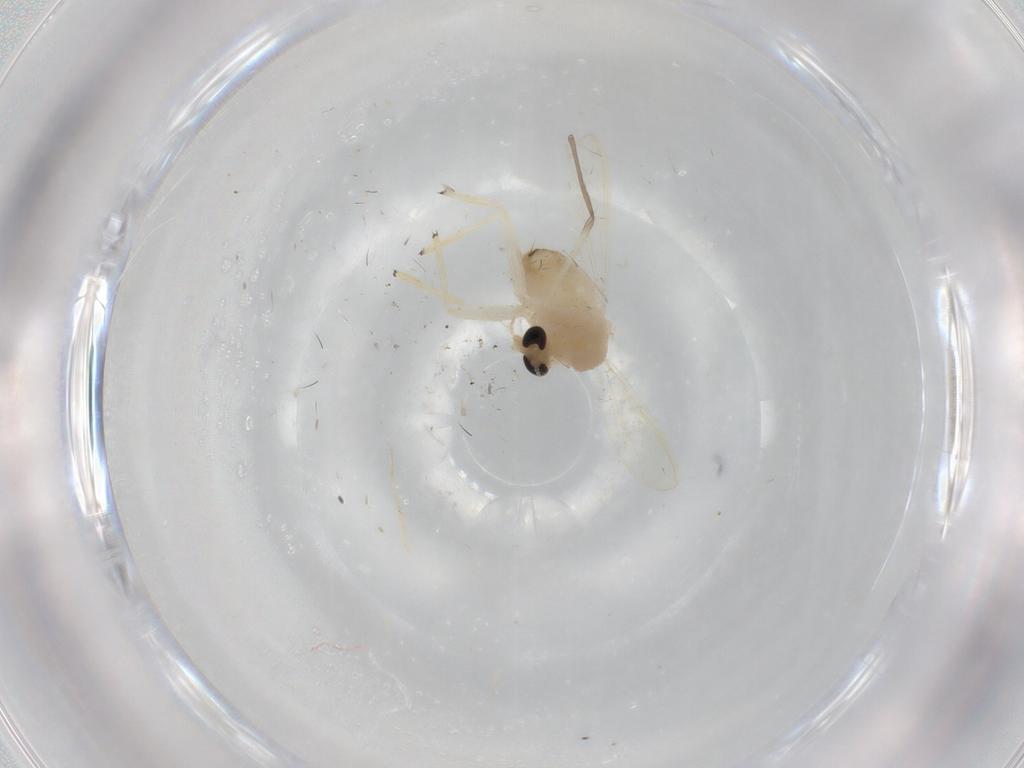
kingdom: Animalia
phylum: Arthropoda
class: Insecta
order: Diptera
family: Chironomidae
